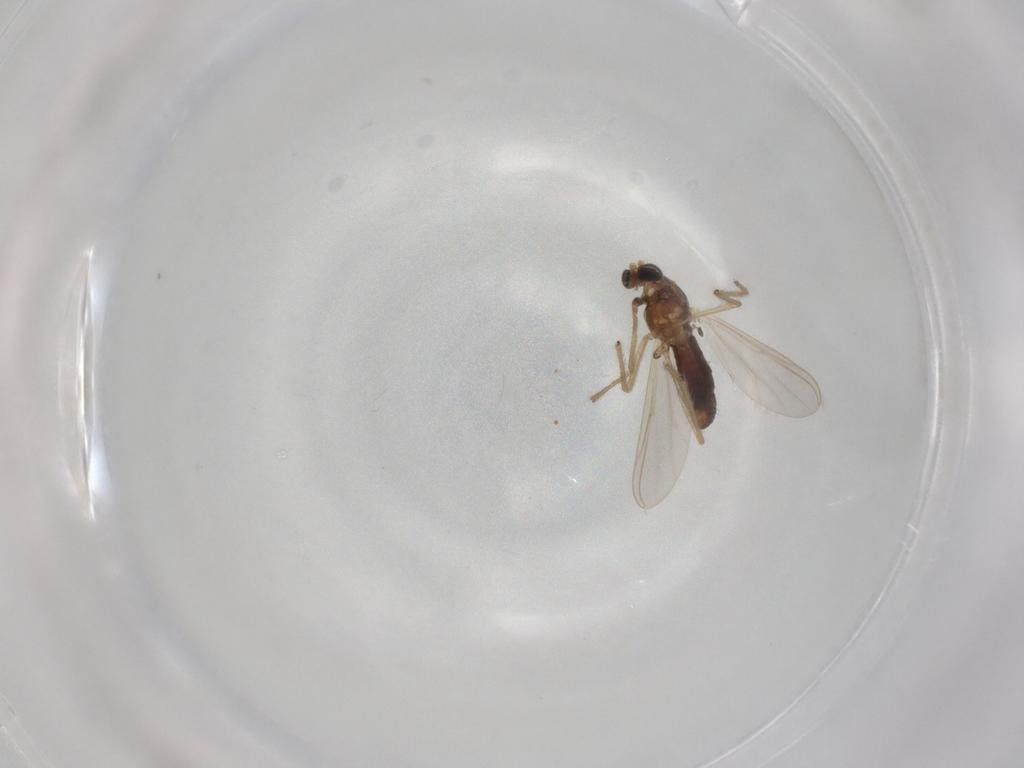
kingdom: Animalia
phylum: Arthropoda
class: Insecta
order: Diptera
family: Chironomidae
